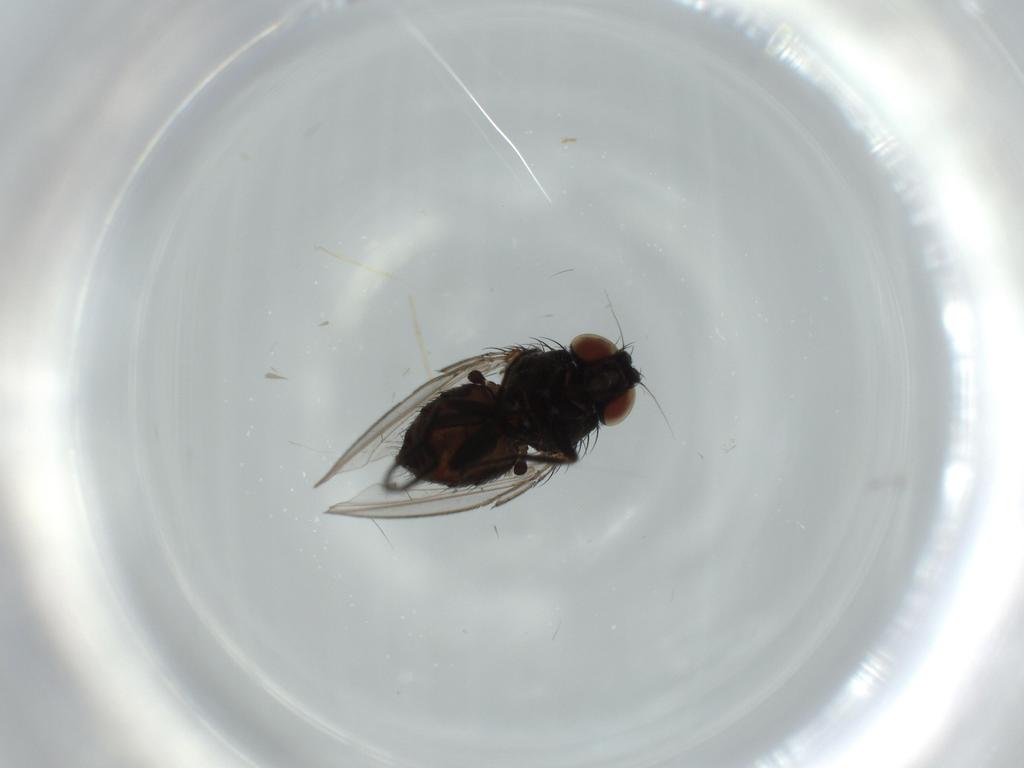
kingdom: Animalia
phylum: Arthropoda
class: Insecta
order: Diptera
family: Milichiidae
